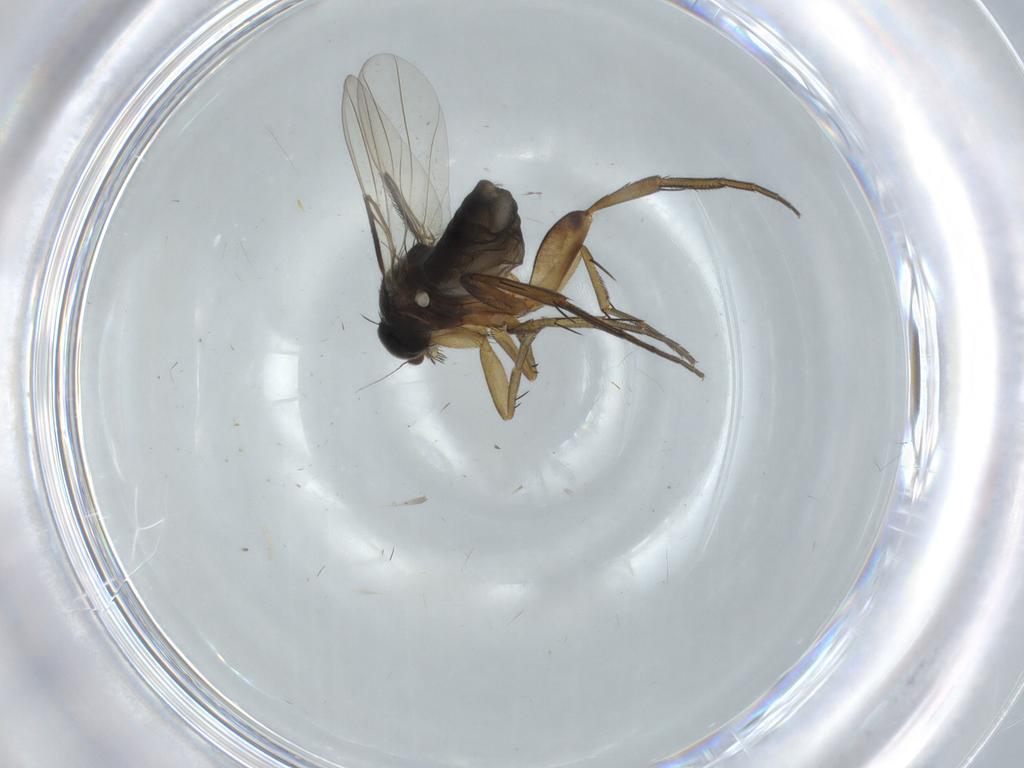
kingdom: Animalia
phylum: Arthropoda
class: Insecta
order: Diptera
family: Phoridae
